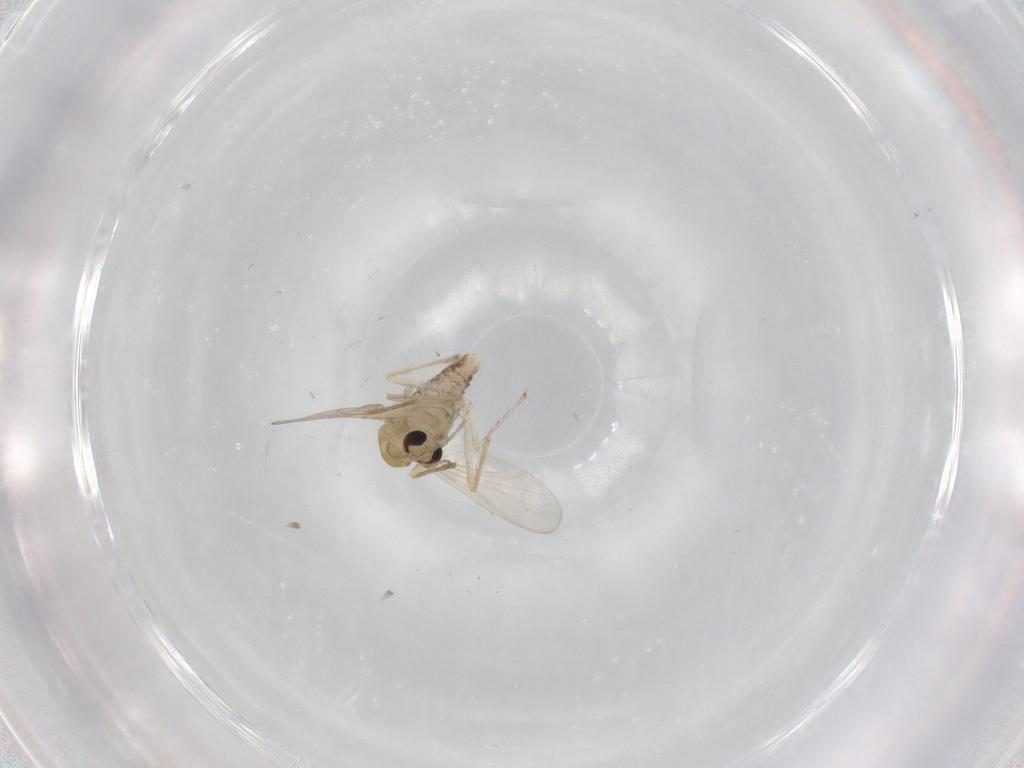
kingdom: Animalia
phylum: Arthropoda
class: Insecta
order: Diptera
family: Chironomidae
